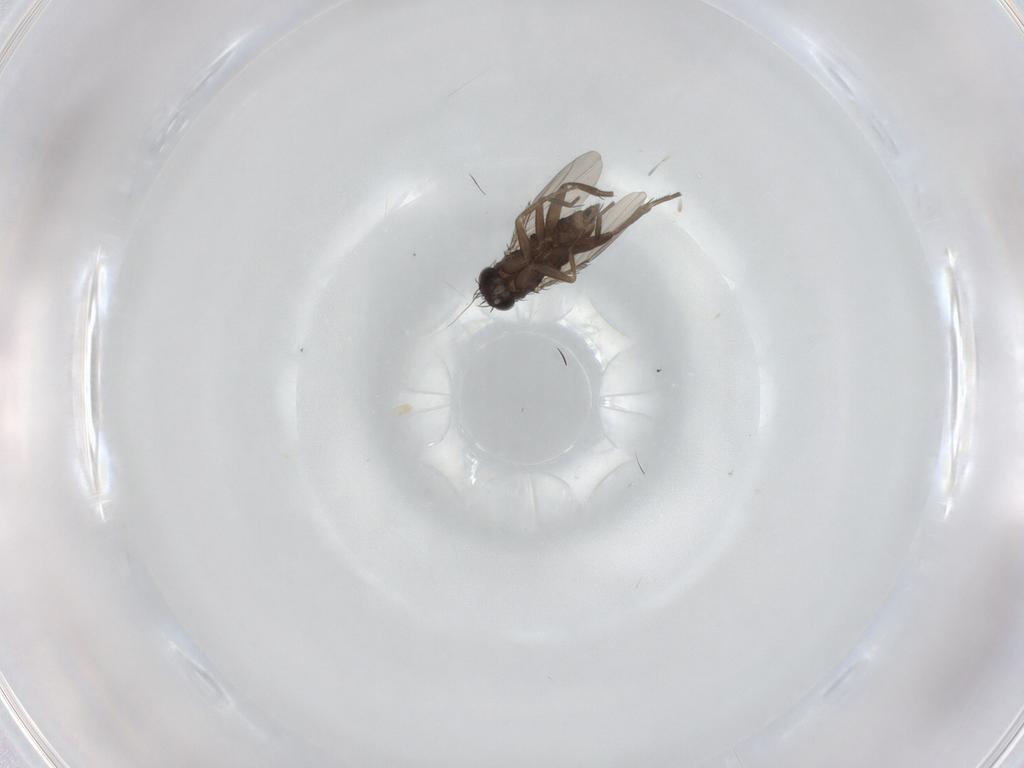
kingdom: Animalia
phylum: Arthropoda
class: Insecta
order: Diptera
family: Phoridae
